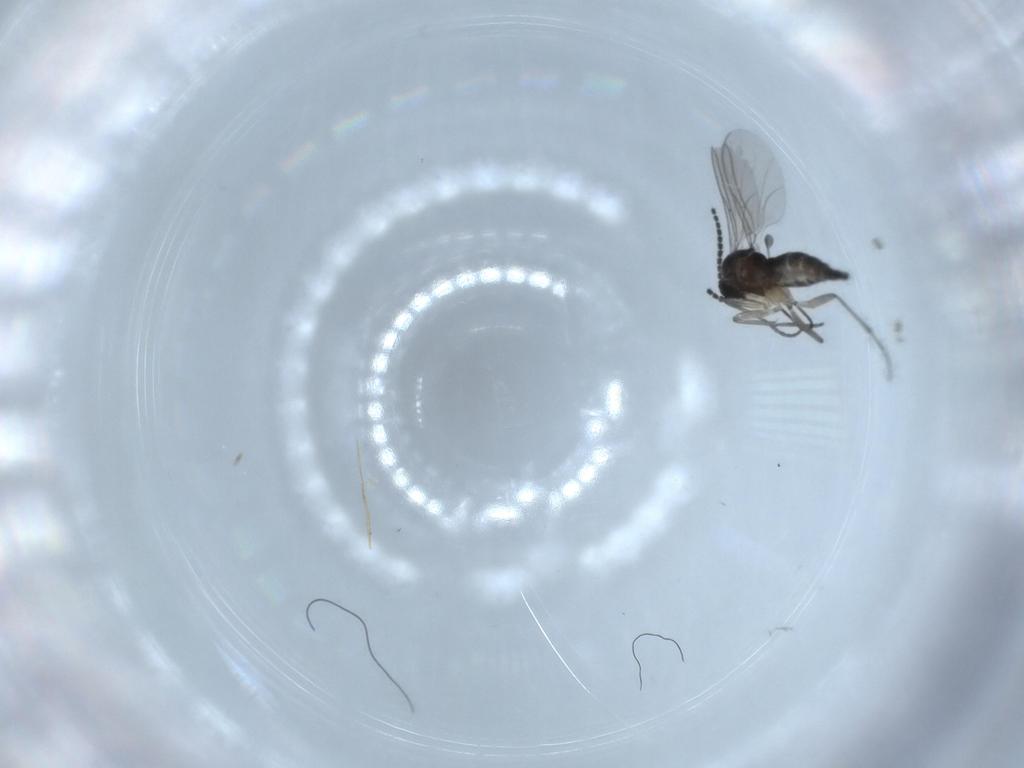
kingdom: Animalia
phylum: Arthropoda
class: Insecta
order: Diptera
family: Sciaridae
